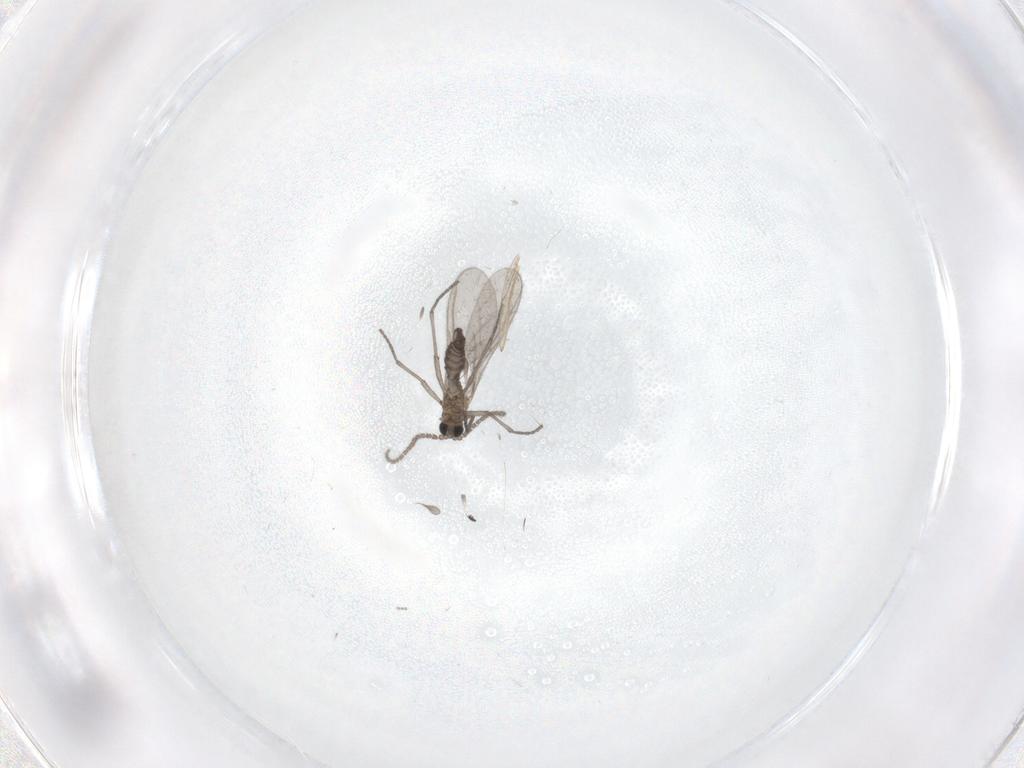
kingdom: Animalia
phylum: Arthropoda
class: Insecta
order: Diptera
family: Sciaridae
